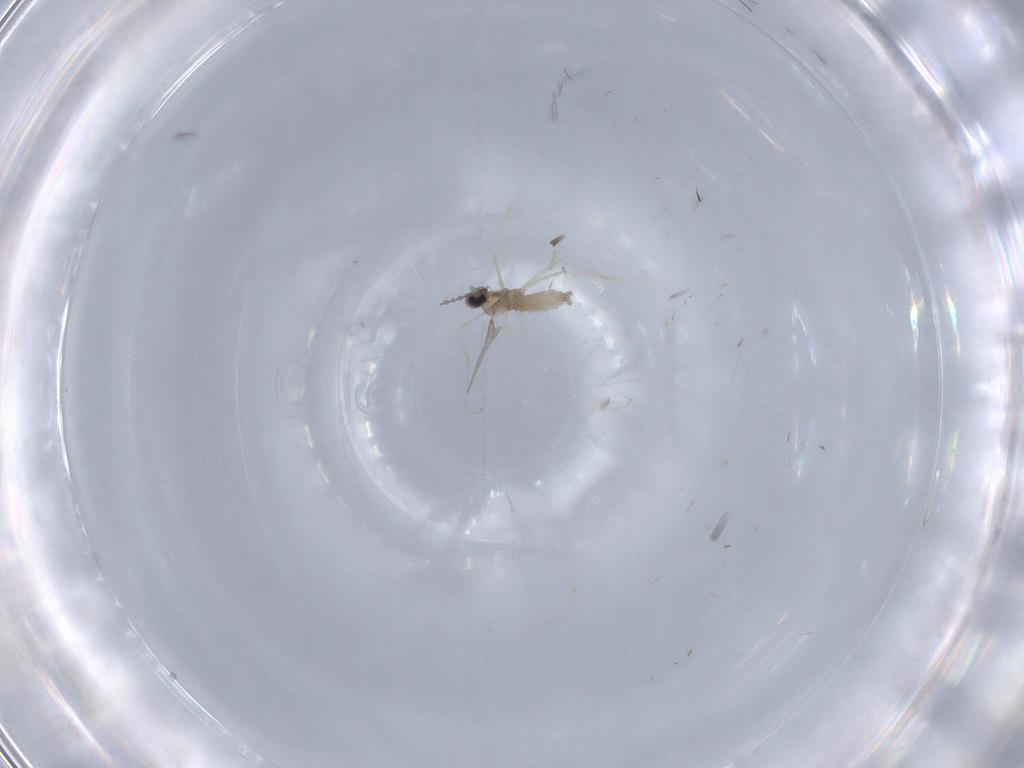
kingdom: Animalia
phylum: Arthropoda
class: Insecta
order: Diptera
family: Cecidomyiidae
